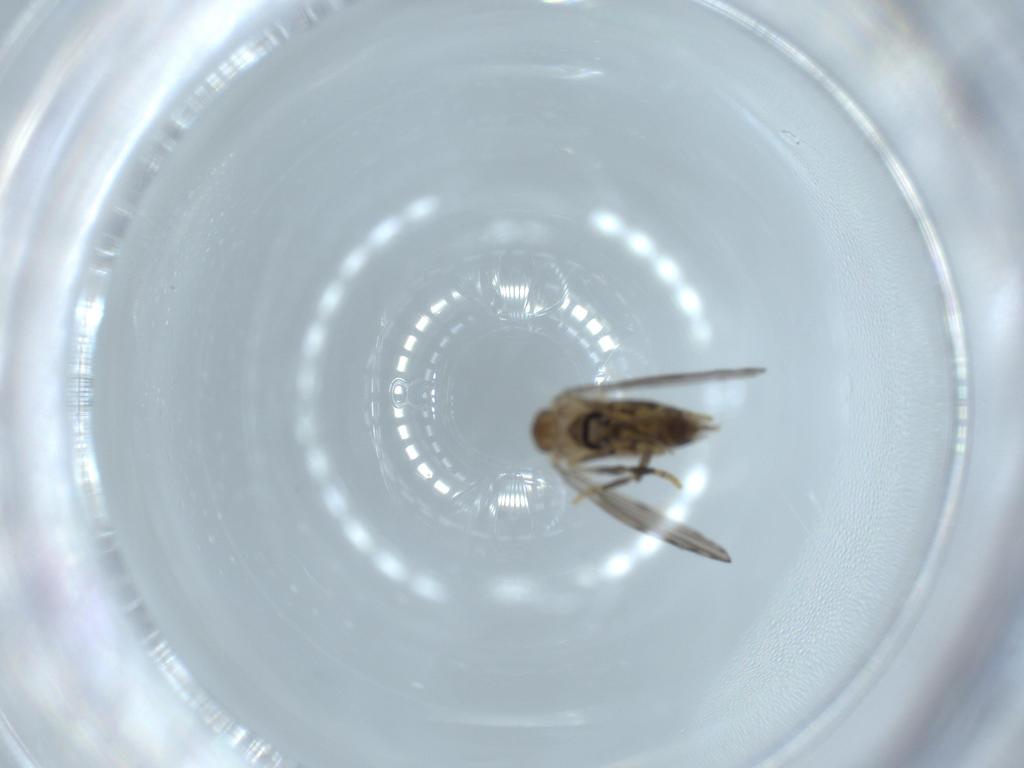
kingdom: Animalia
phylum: Arthropoda
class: Insecta
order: Diptera
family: Psychodidae
